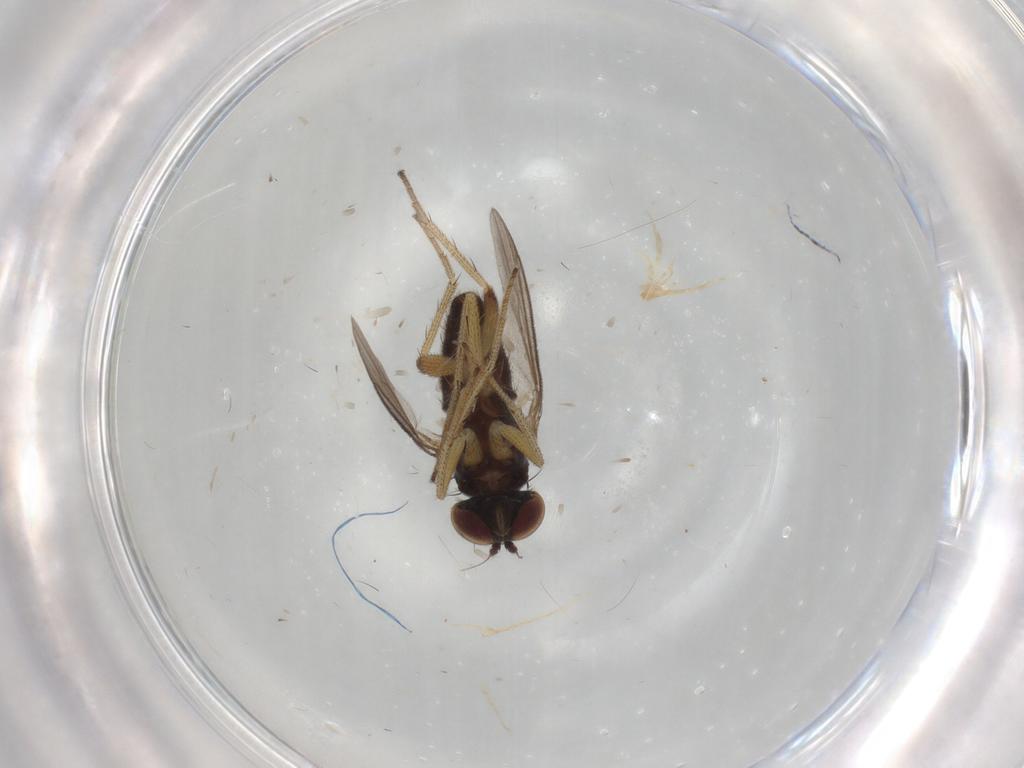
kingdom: Animalia
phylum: Arthropoda
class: Insecta
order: Diptera
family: Dolichopodidae
